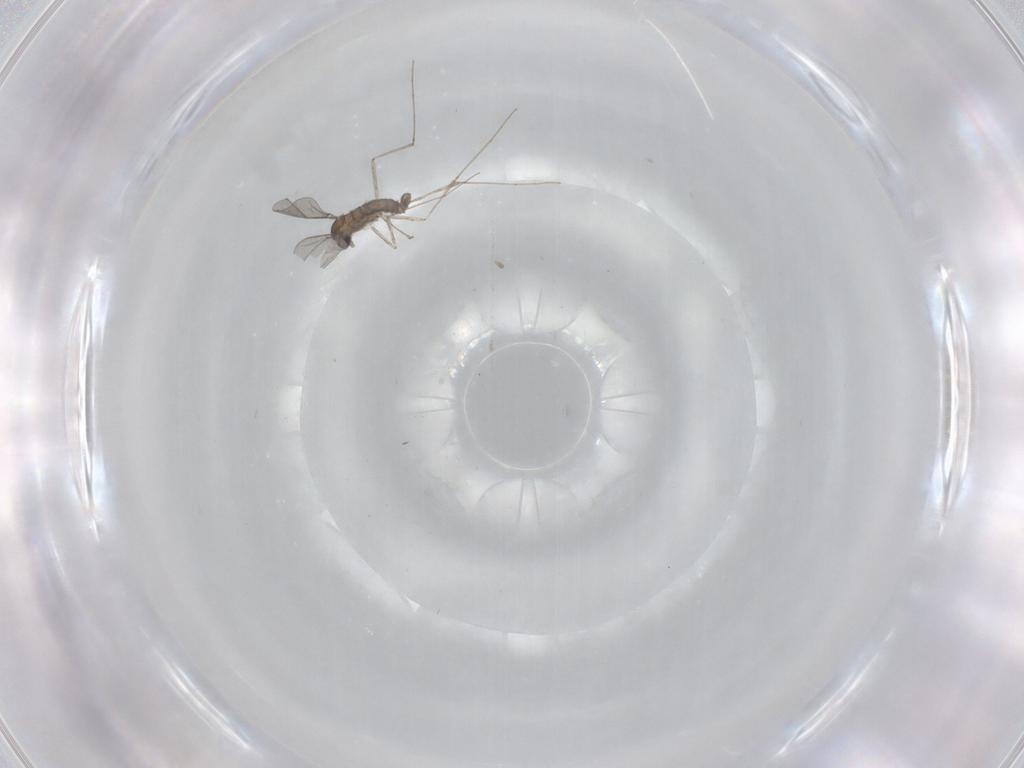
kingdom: Animalia
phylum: Arthropoda
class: Insecta
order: Diptera
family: Cecidomyiidae
